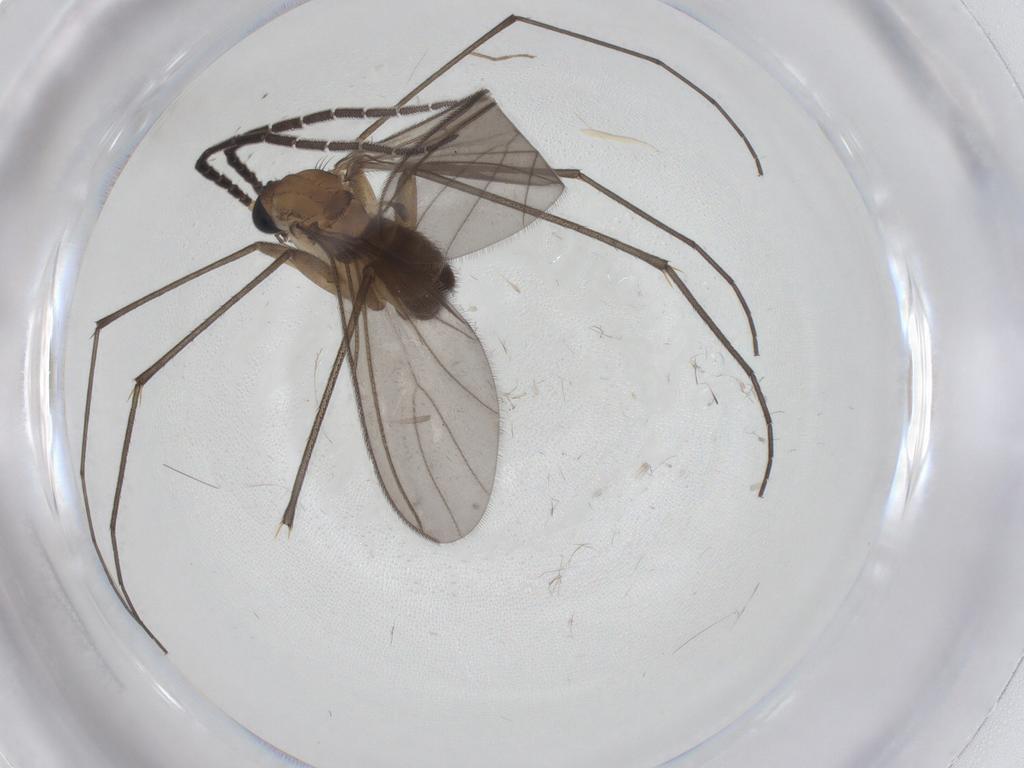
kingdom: Animalia
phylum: Arthropoda
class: Insecta
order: Diptera
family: Sciaridae
